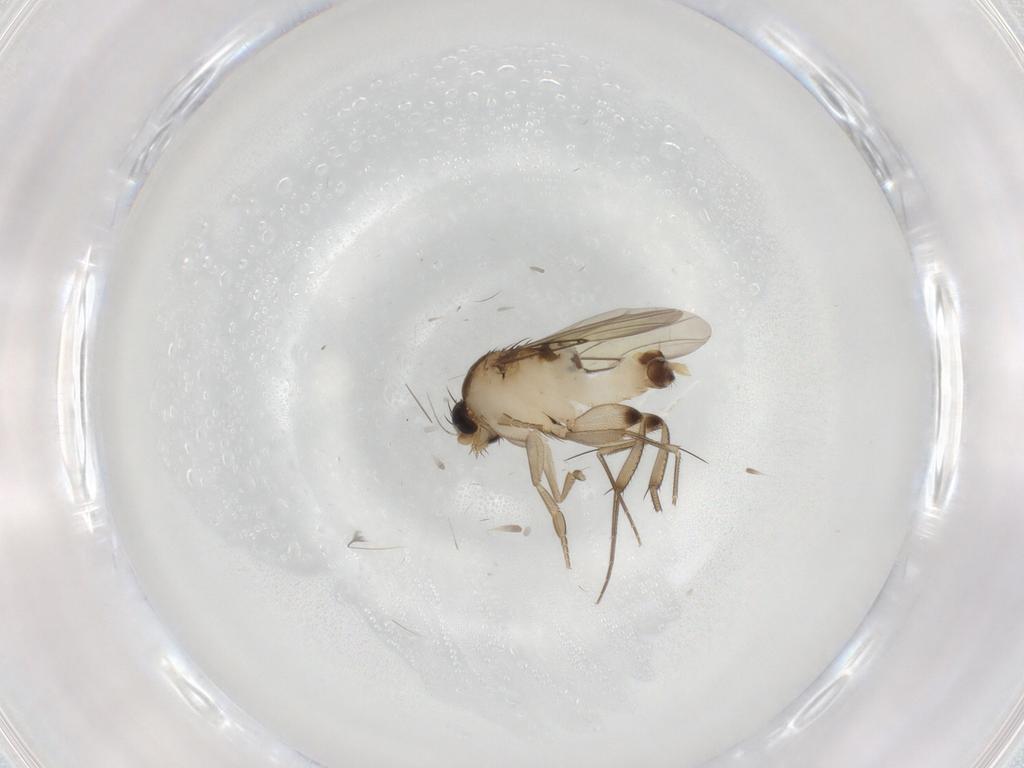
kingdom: Animalia
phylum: Arthropoda
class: Insecta
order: Diptera
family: Phoridae
